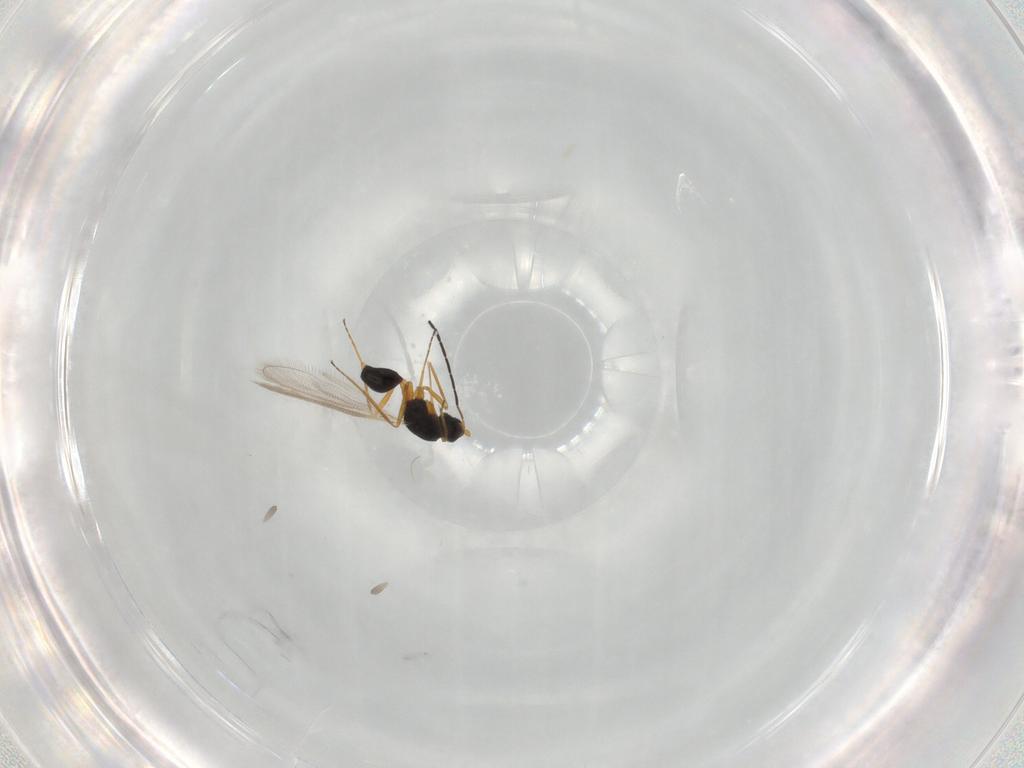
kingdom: Animalia
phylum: Arthropoda
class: Insecta
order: Hymenoptera
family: Mymaridae
